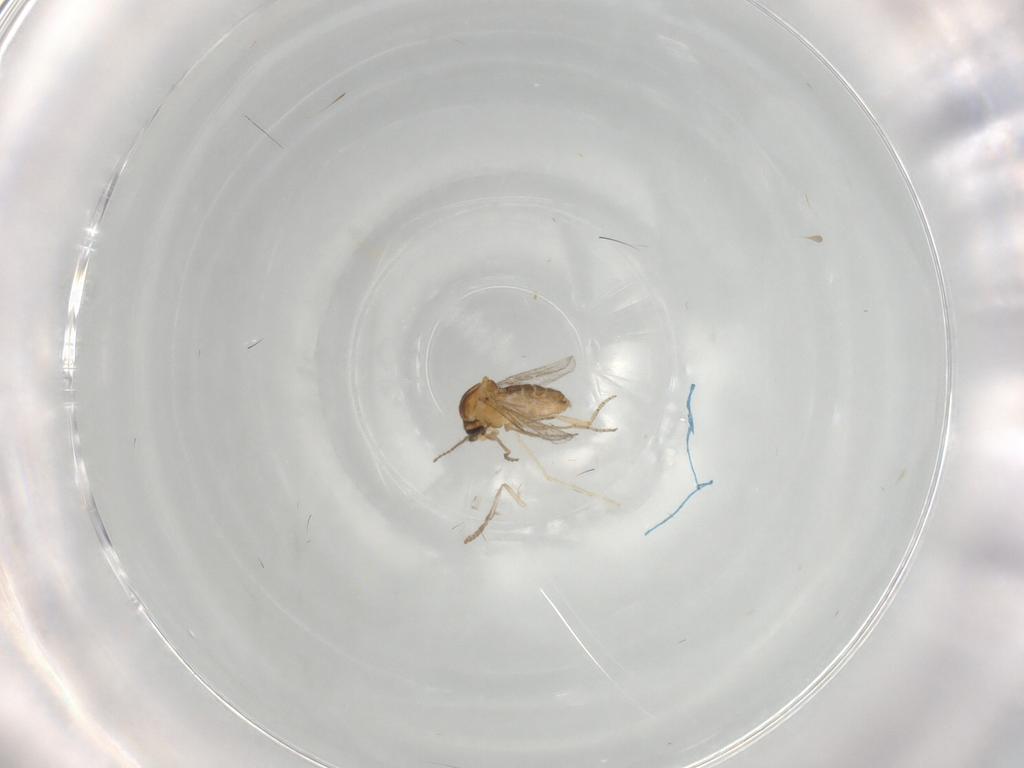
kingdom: Animalia
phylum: Arthropoda
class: Insecta
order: Diptera
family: Ceratopogonidae
